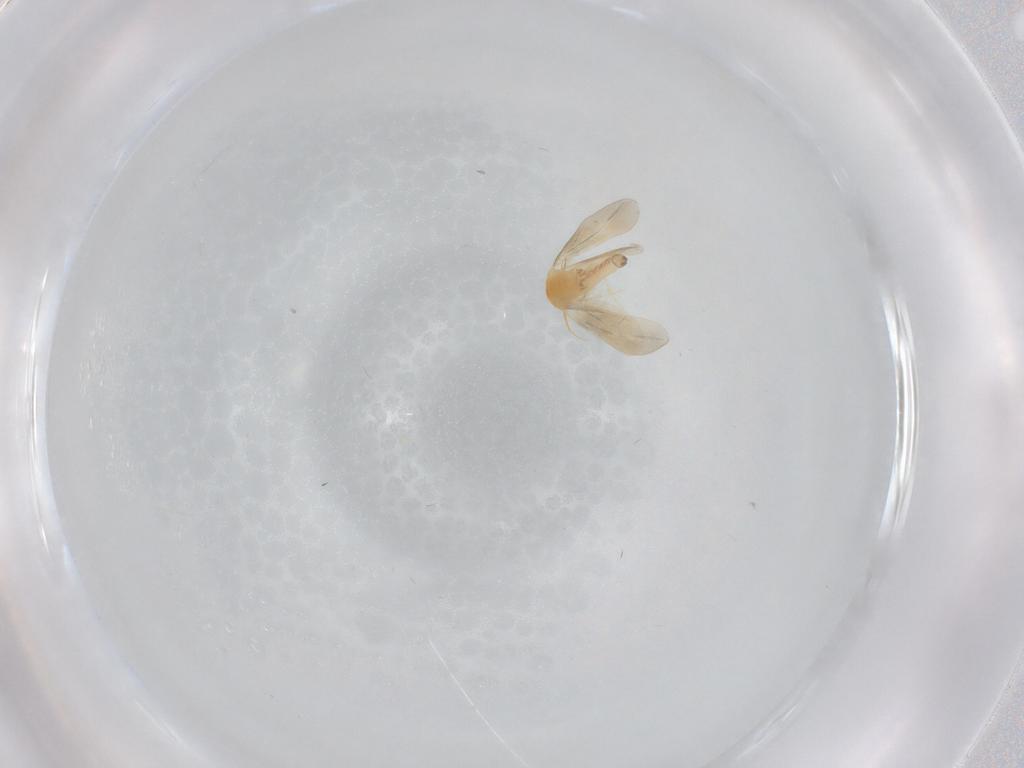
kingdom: Animalia
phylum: Arthropoda
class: Insecta
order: Hemiptera
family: Aleyrodidae
